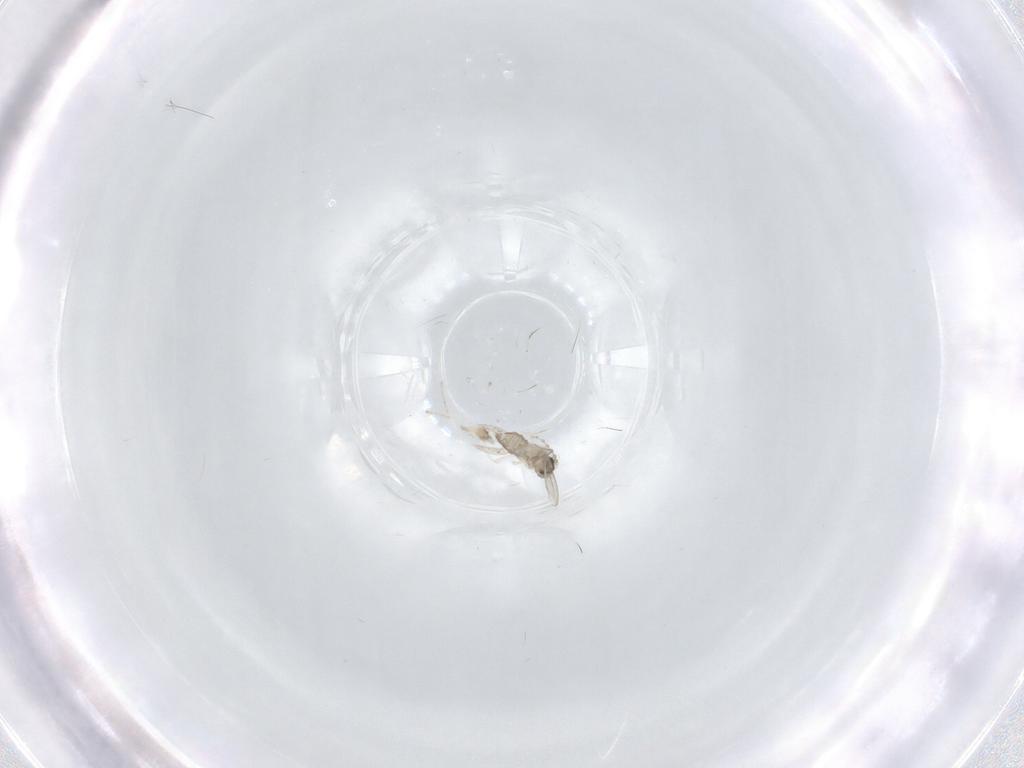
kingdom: Animalia
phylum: Arthropoda
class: Insecta
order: Diptera
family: Cecidomyiidae
